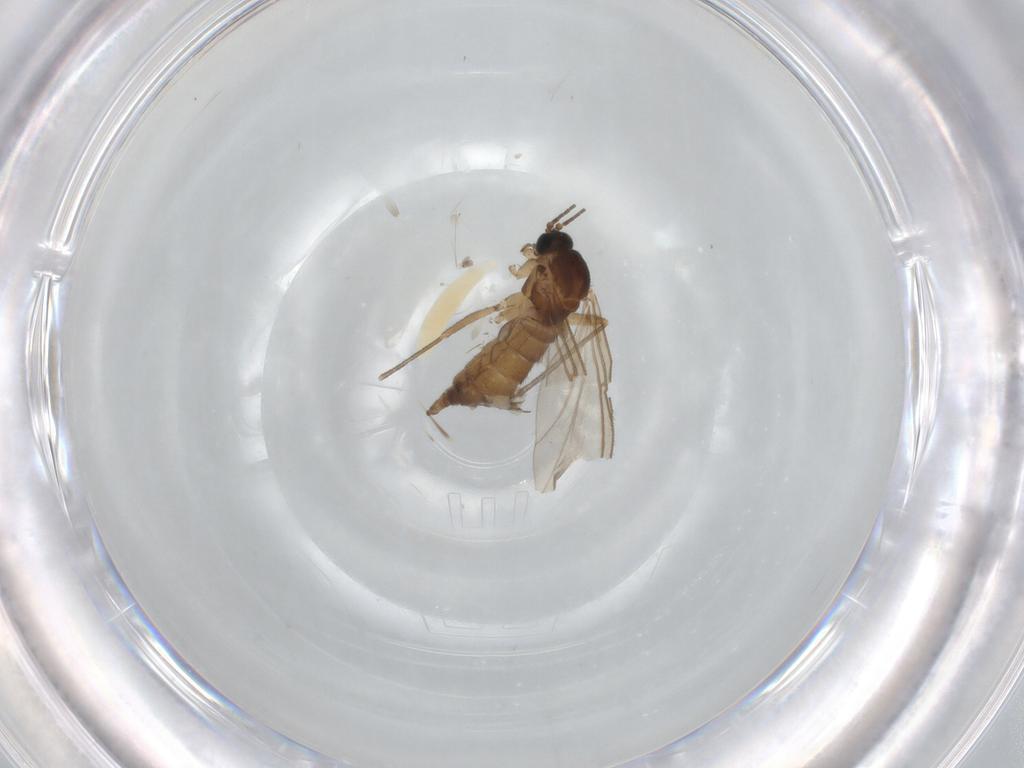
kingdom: Animalia
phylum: Arthropoda
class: Insecta
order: Diptera
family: Sciaridae
